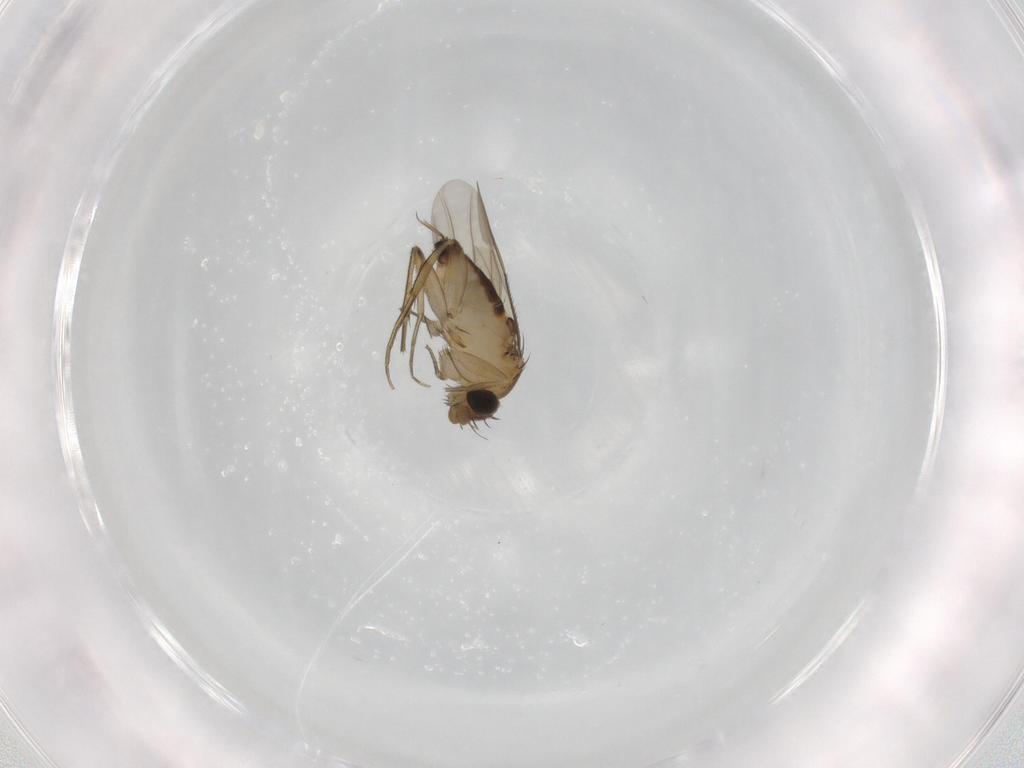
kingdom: Animalia
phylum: Arthropoda
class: Insecta
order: Diptera
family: Phoridae
